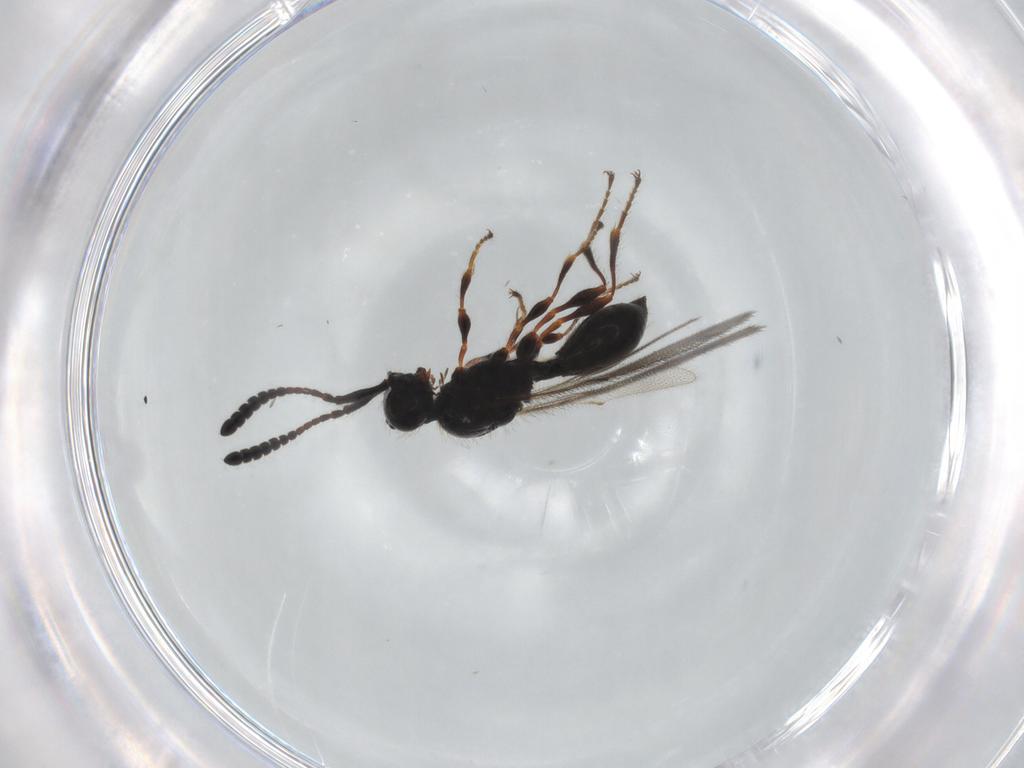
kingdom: Animalia
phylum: Arthropoda
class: Insecta
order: Hymenoptera
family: Diapriidae
